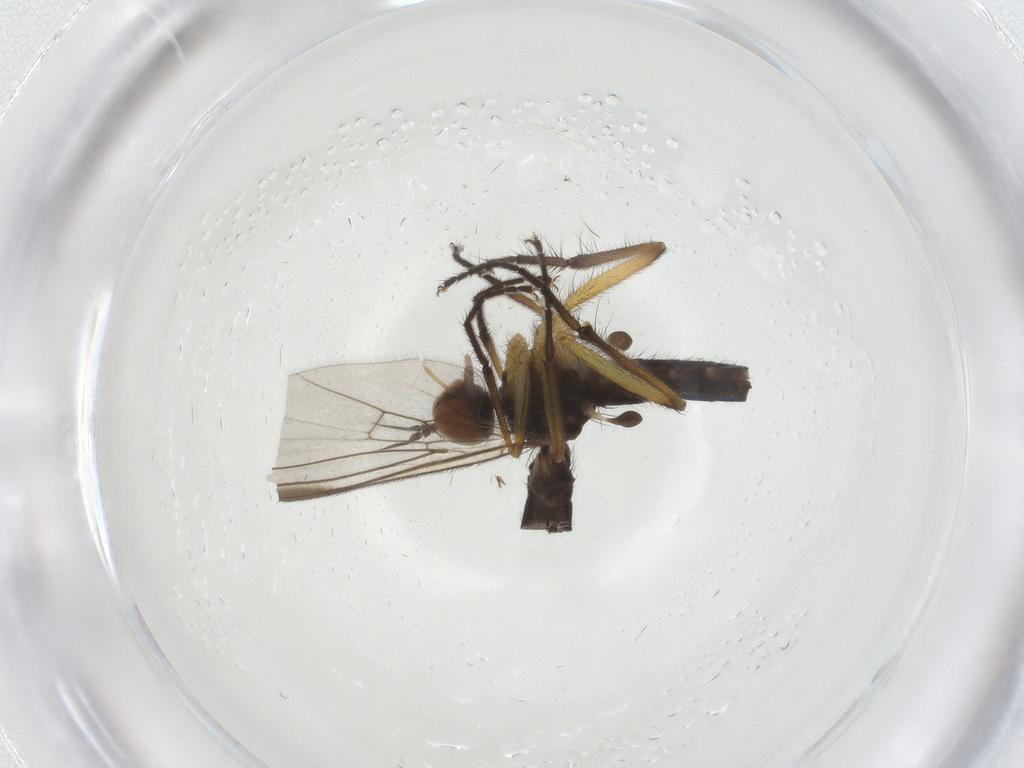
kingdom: Animalia
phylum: Arthropoda
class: Insecta
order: Diptera
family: Empididae
